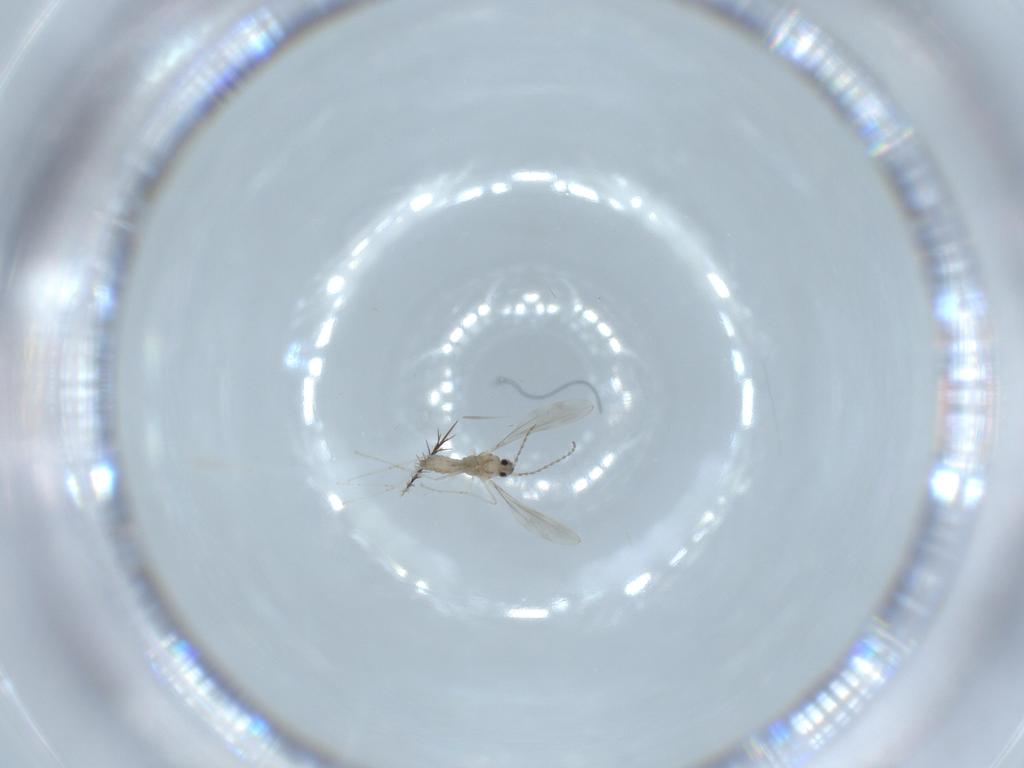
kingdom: Animalia
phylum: Arthropoda
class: Insecta
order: Diptera
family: Cecidomyiidae
